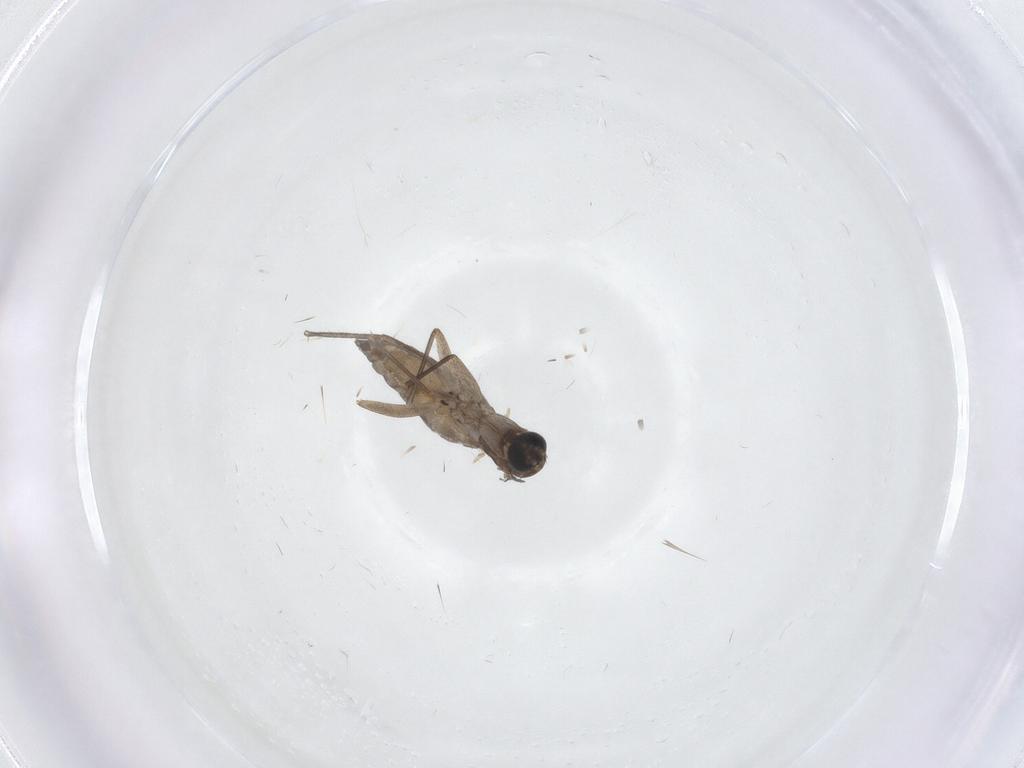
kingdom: Animalia
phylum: Arthropoda
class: Insecta
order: Diptera
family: Sciaridae
